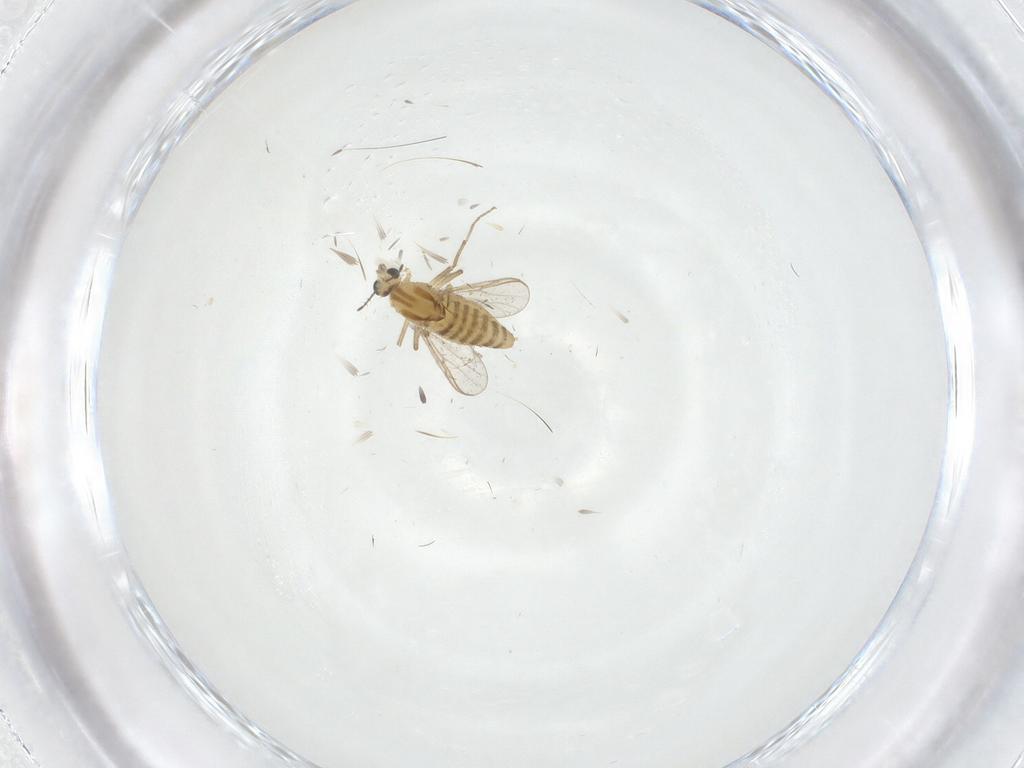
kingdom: Animalia
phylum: Arthropoda
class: Insecta
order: Diptera
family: Chironomidae
